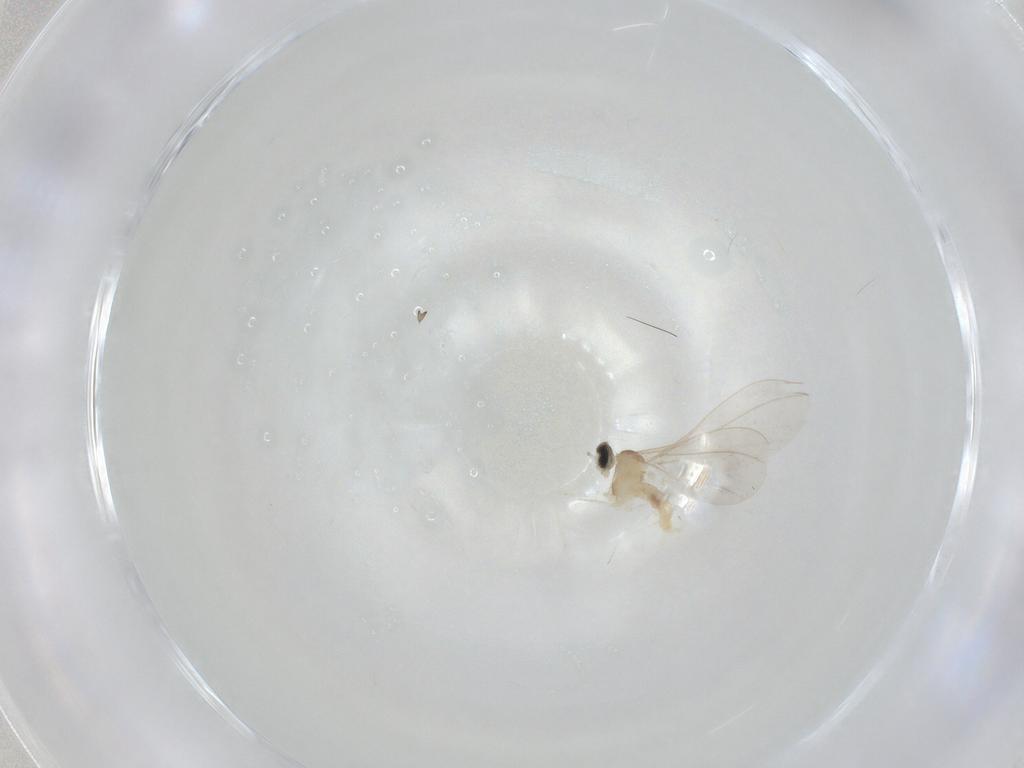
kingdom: Animalia
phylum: Arthropoda
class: Insecta
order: Diptera
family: Cecidomyiidae
